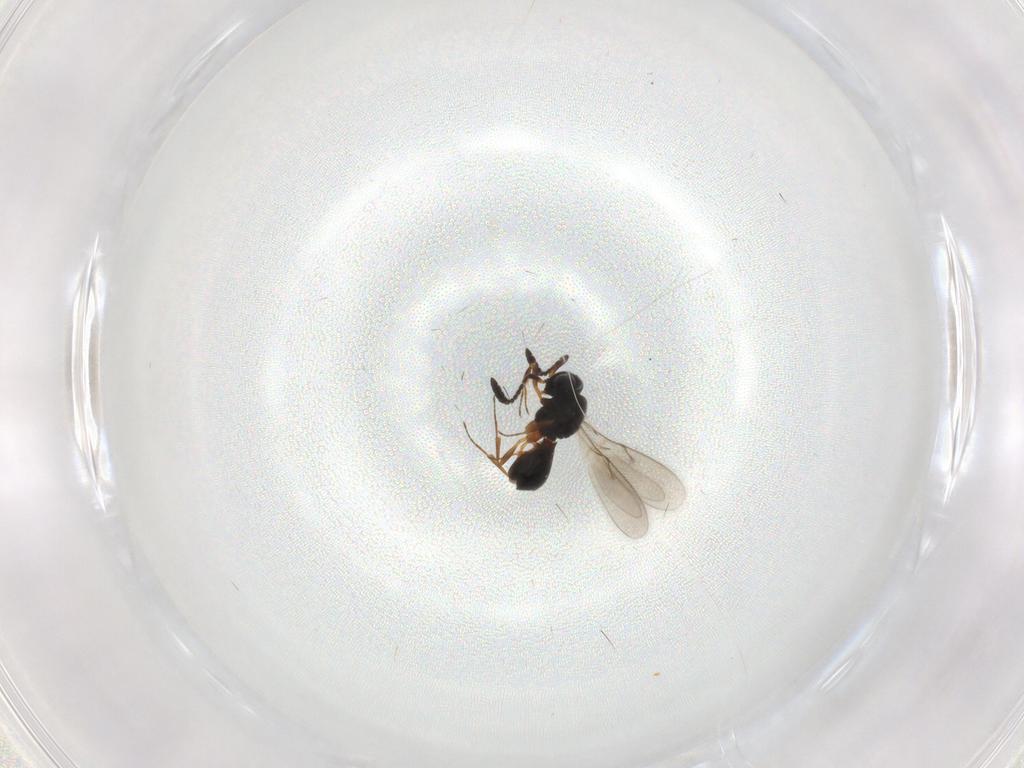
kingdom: Animalia
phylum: Arthropoda
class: Insecta
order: Hymenoptera
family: Scelionidae
